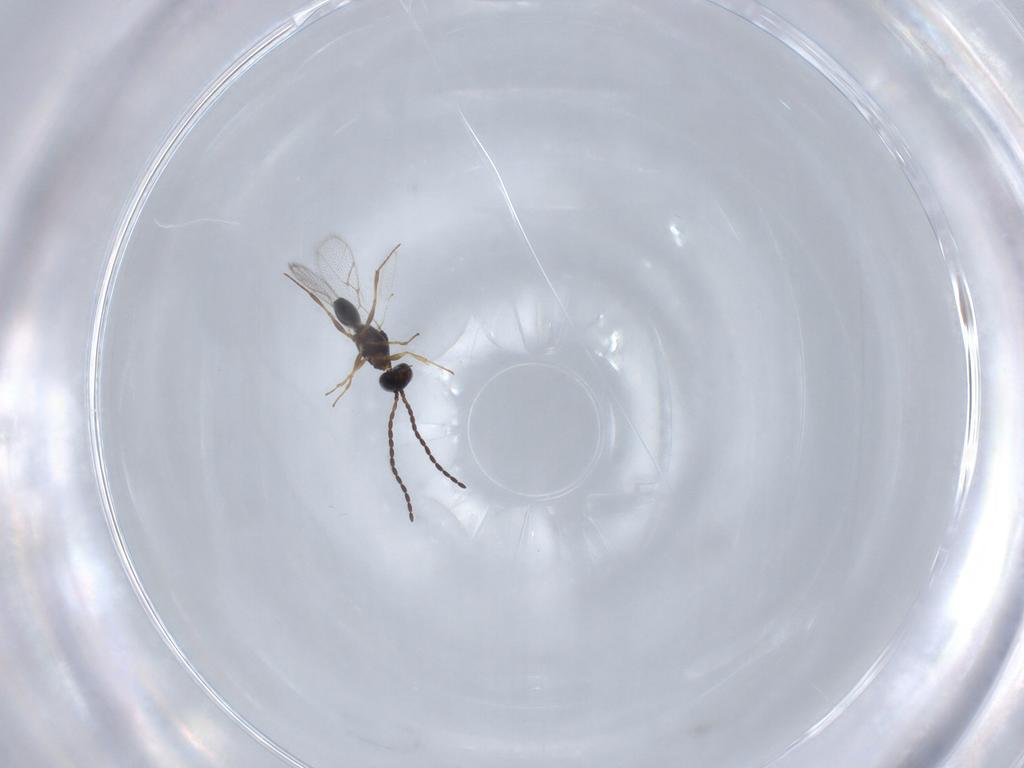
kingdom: Animalia
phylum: Arthropoda
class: Insecta
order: Hymenoptera
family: Figitidae
